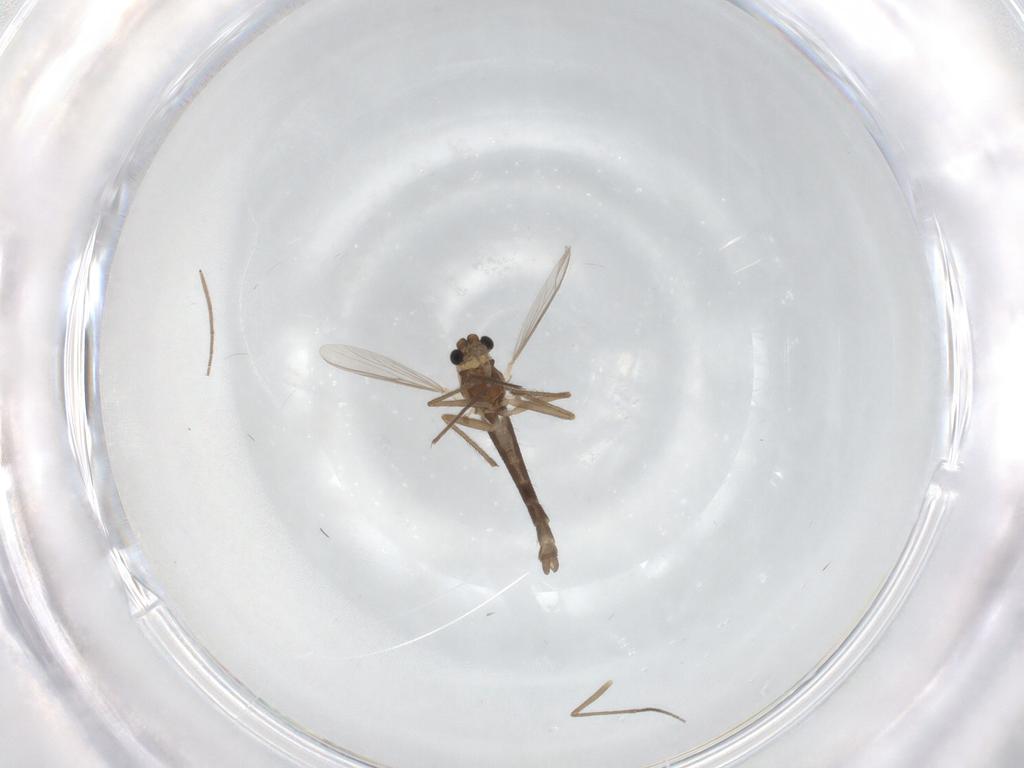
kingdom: Animalia
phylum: Arthropoda
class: Insecta
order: Diptera
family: Chironomidae
